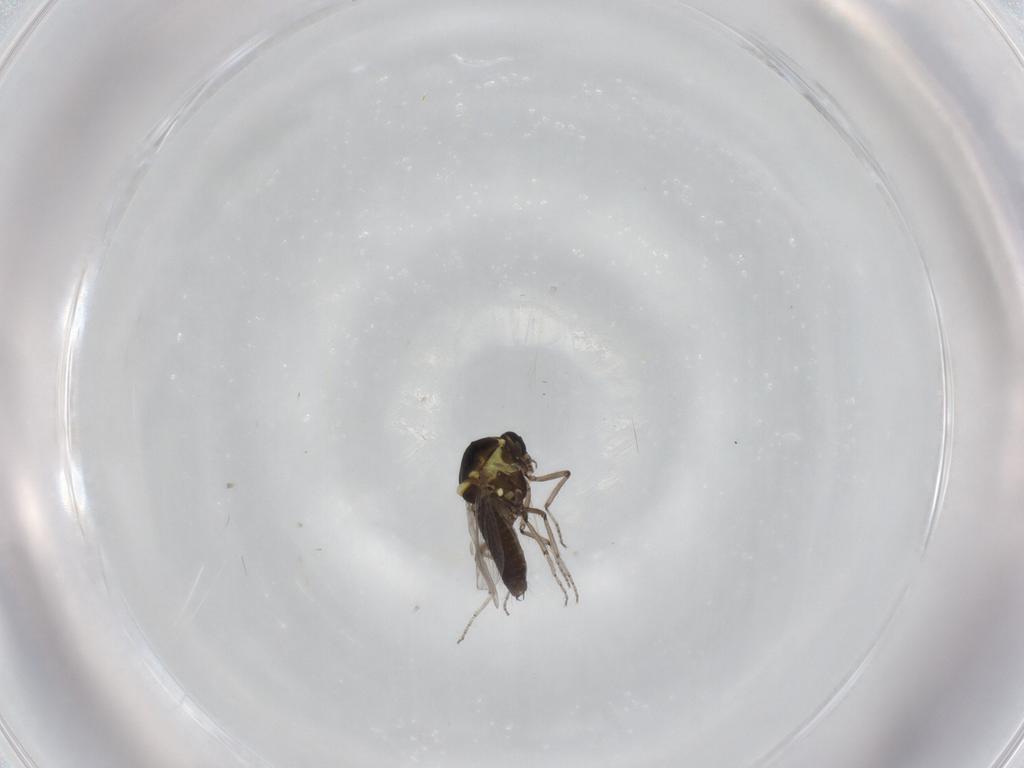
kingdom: Animalia
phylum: Arthropoda
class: Insecta
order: Diptera
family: Ceratopogonidae
